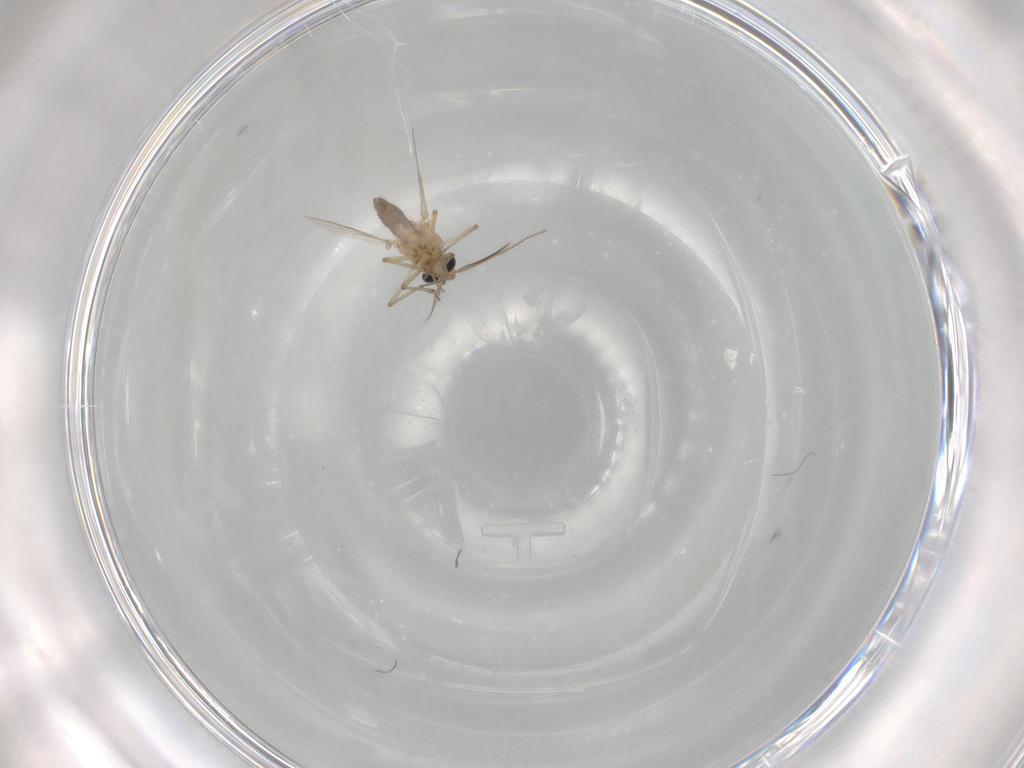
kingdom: Animalia
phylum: Arthropoda
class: Insecta
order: Diptera
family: Ceratopogonidae
